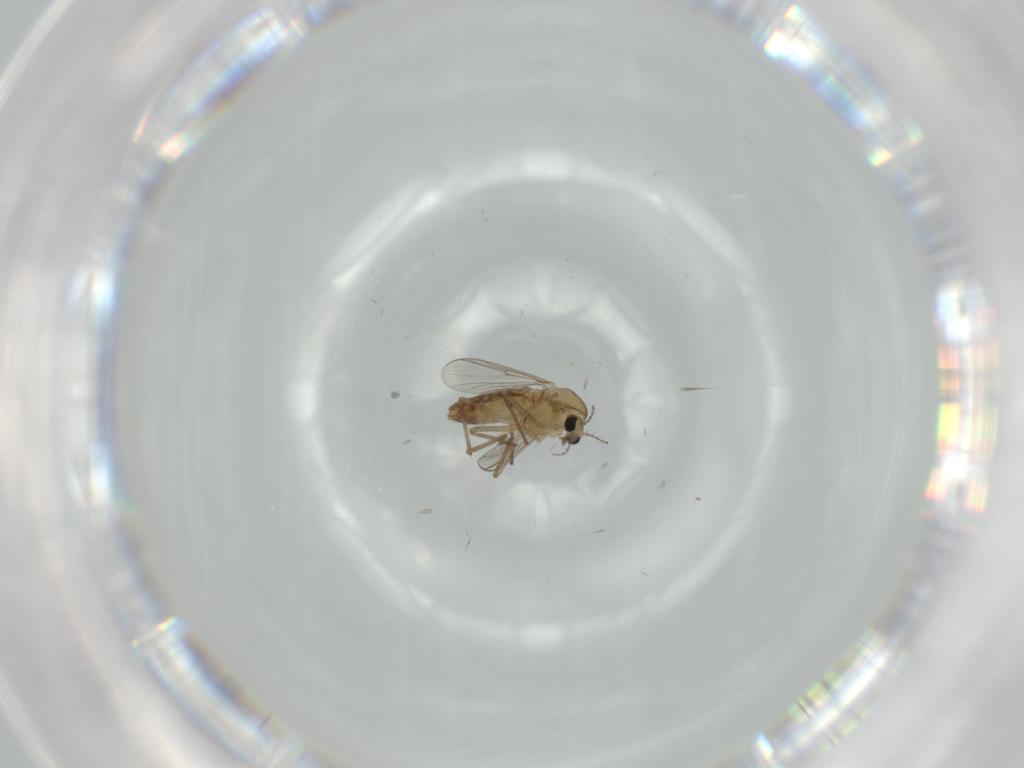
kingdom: Animalia
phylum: Arthropoda
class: Insecta
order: Diptera
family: Chironomidae
